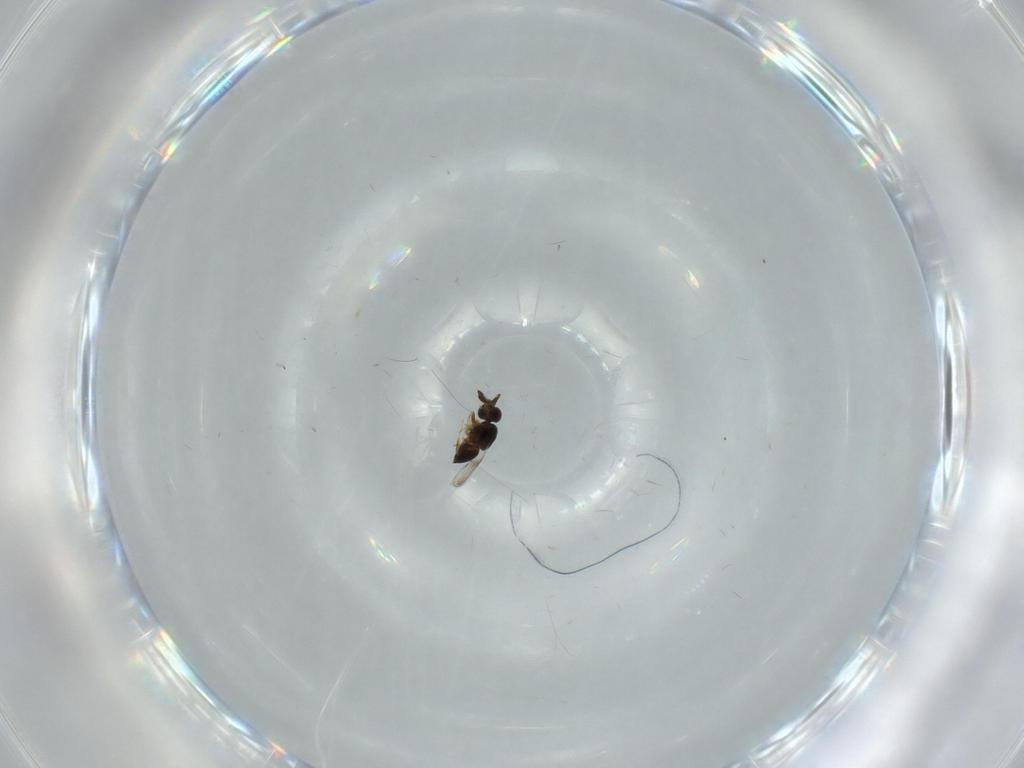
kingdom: Animalia
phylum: Arthropoda
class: Insecta
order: Hymenoptera
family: Ceraphronidae
